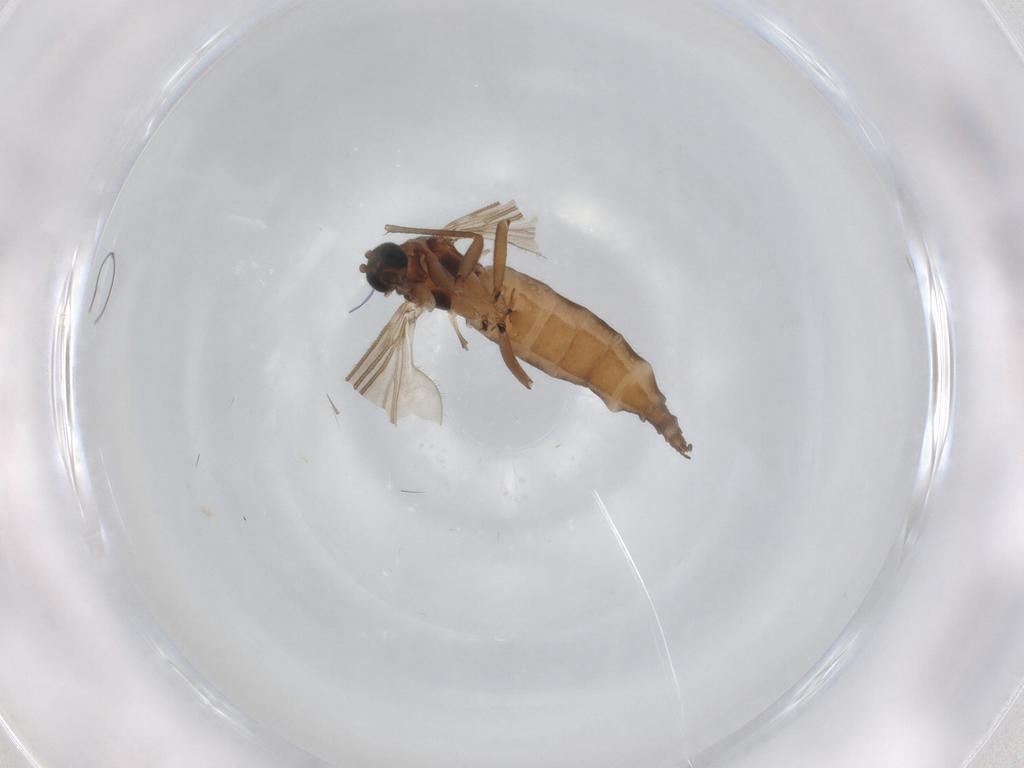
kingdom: Animalia
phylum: Arthropoda
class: Insecta
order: Diptera
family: Sciaridae
